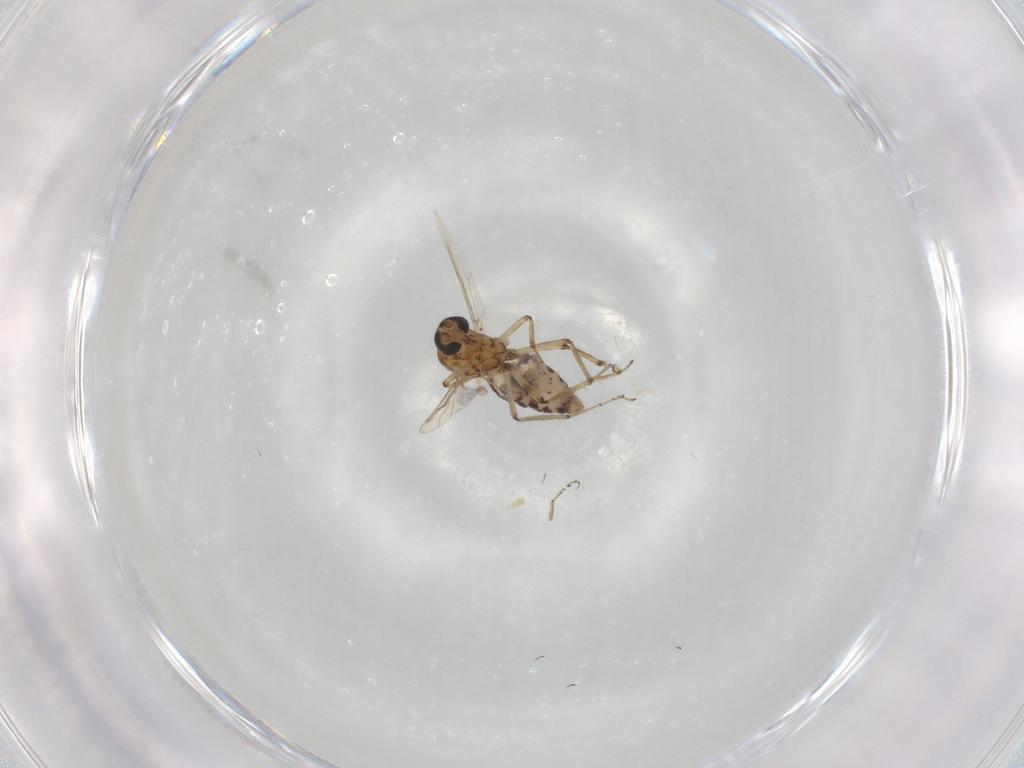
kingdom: Animalia
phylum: Arthropoda
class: Insecta
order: Diptera
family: Ceratopogonidae
